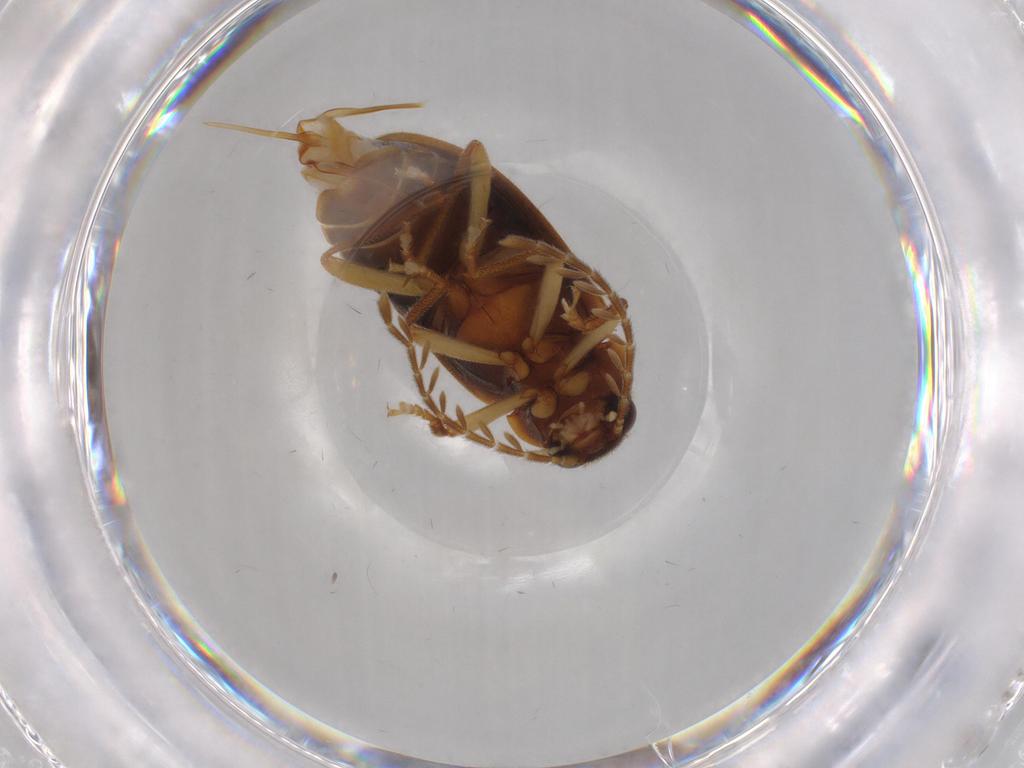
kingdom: Animalia
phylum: Arthropoda
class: Insecta
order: Coleoptera
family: Ptilodactylidae
